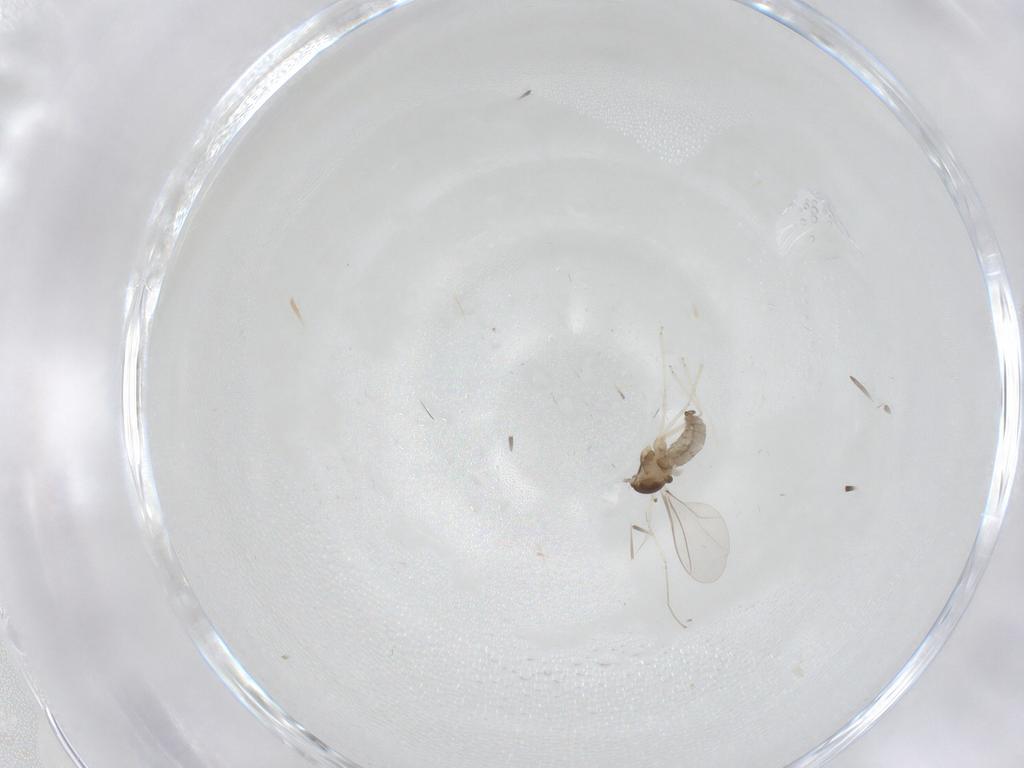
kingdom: Animalia
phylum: Arthropoda
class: Insecta
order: Diptera
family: Cecidomyiidae
